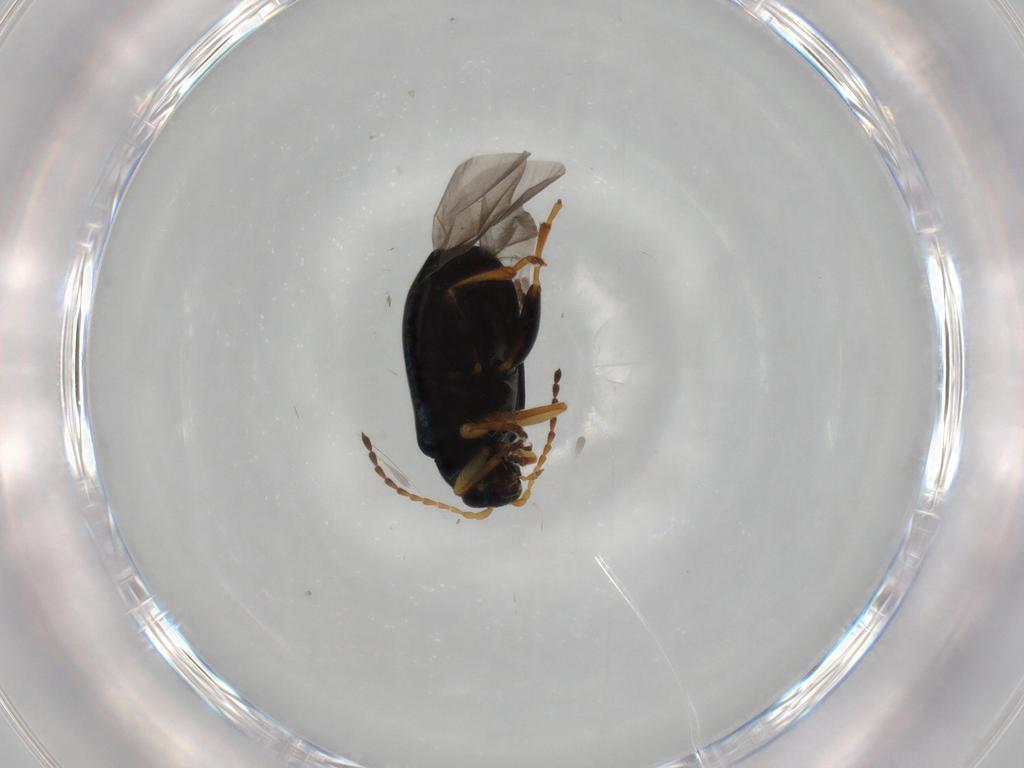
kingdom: Animalia
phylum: Arthropoda
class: Insecta
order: Coleoptera
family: Chrysomelidae
